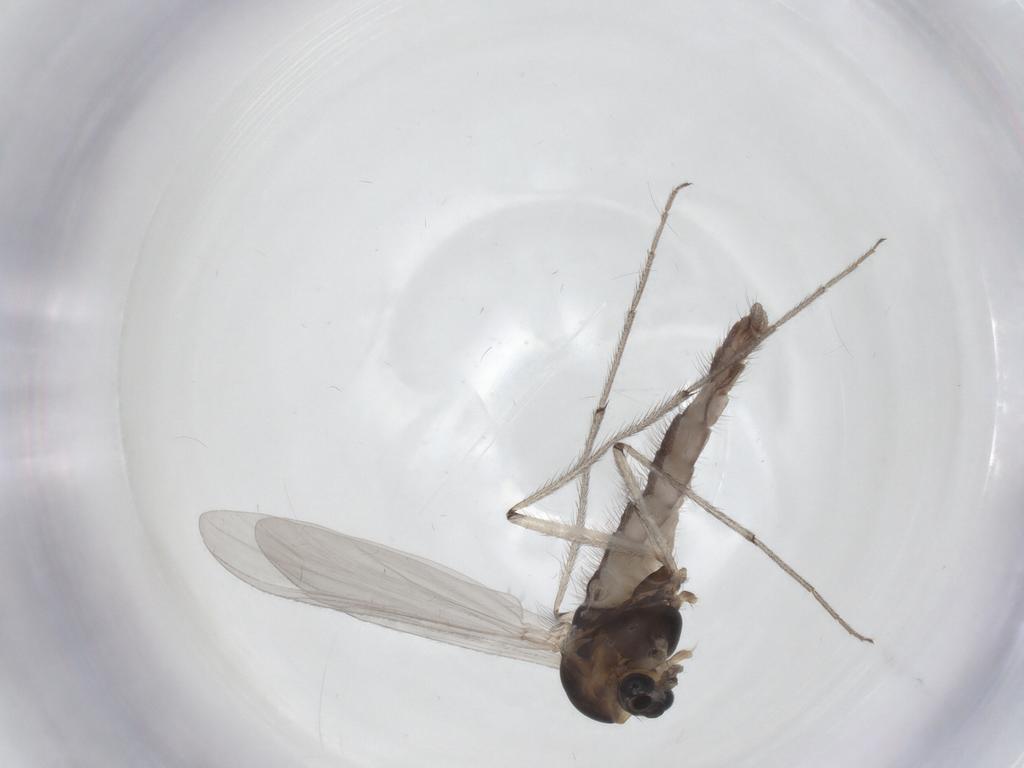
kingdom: Animalia
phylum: Arthropoda
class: Insecta
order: Diptera
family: Chironomidae
